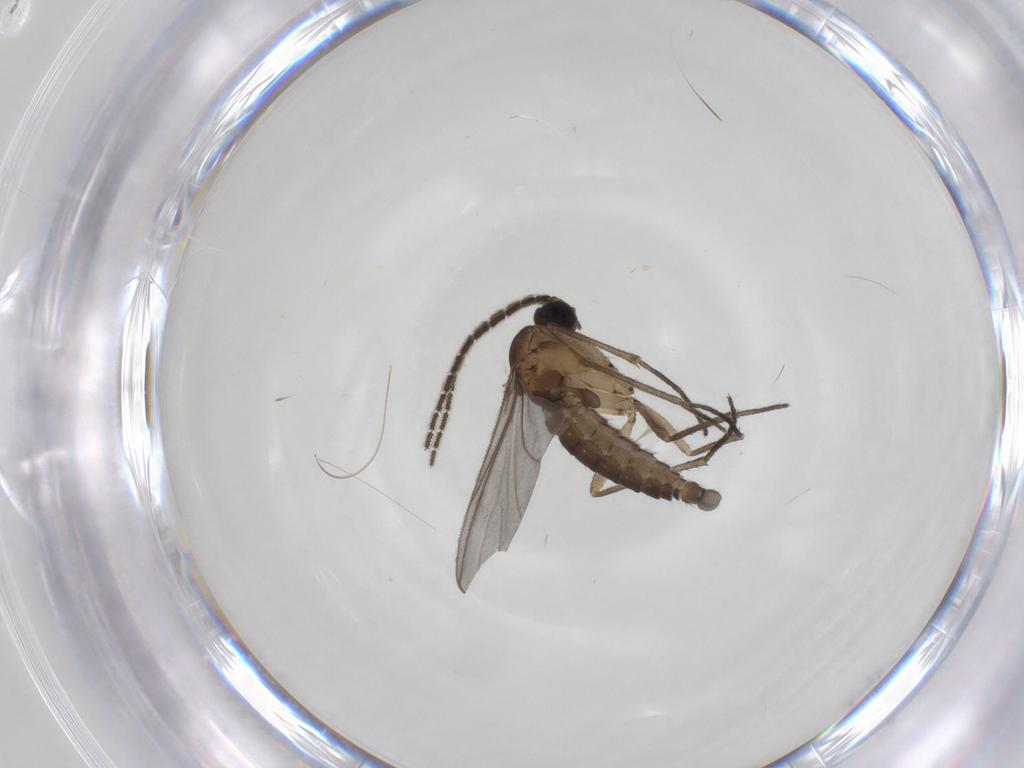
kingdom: Animalia
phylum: Arthropoda
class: Insecta
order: Diptera
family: Sciaridae
